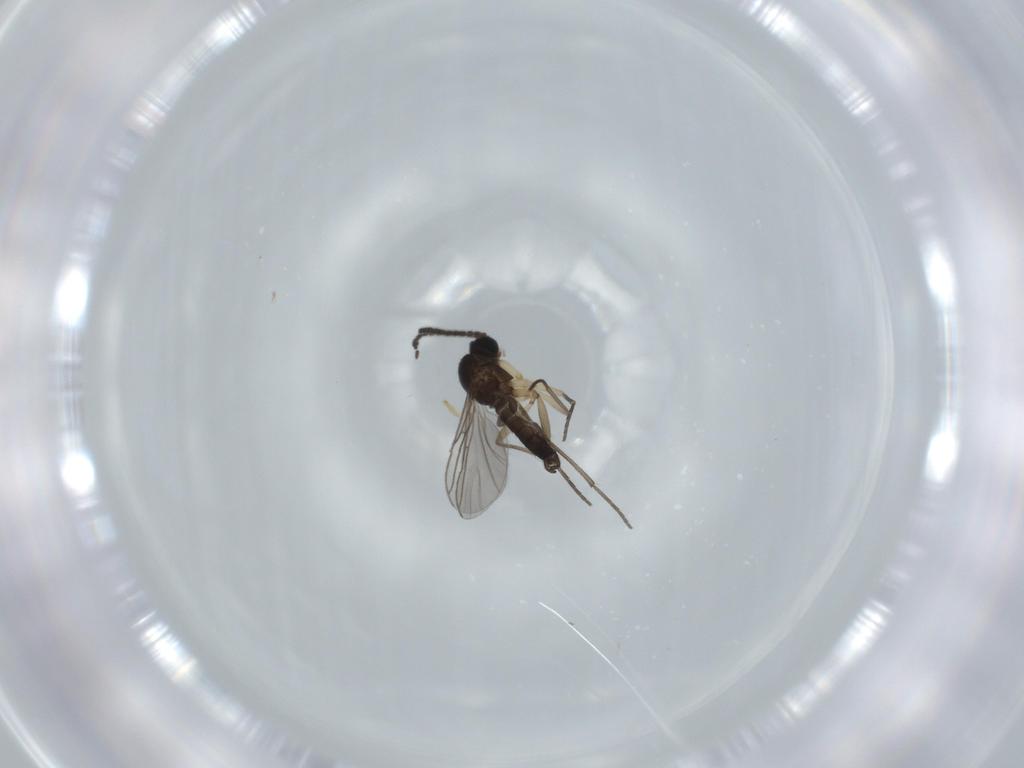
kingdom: Animalia
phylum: Arthropoda
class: Insecta
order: Diptera
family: Sciaridae
